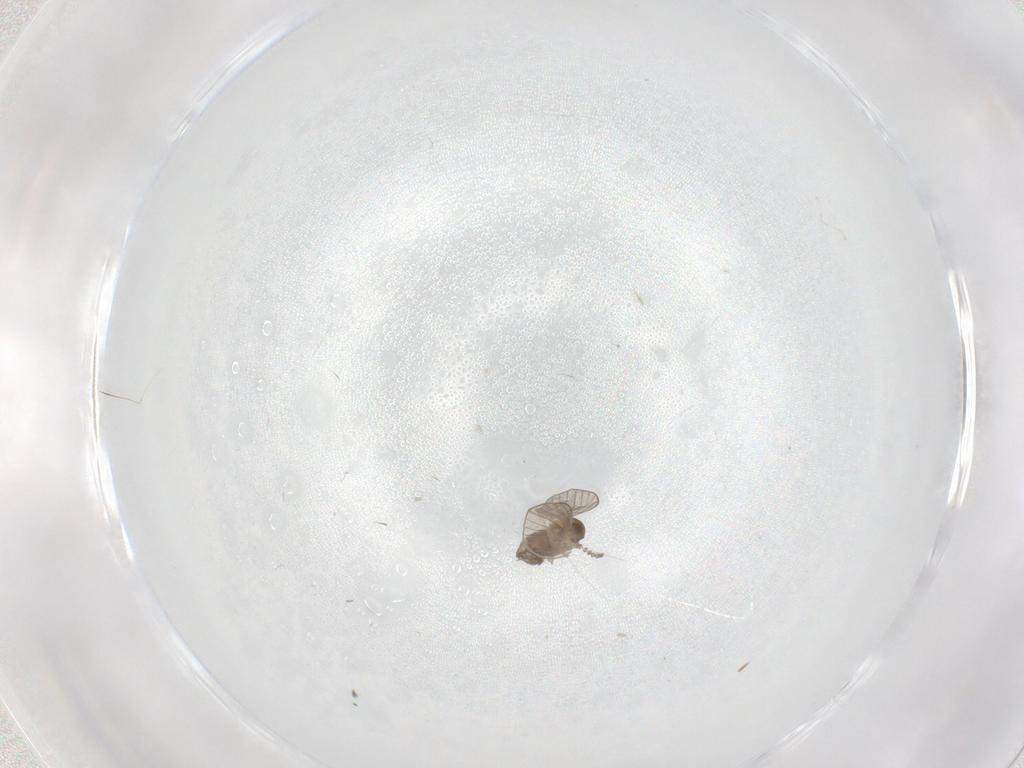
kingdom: Animalia
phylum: Arthropoda
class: Insecta
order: Diptera
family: Psychodidae
